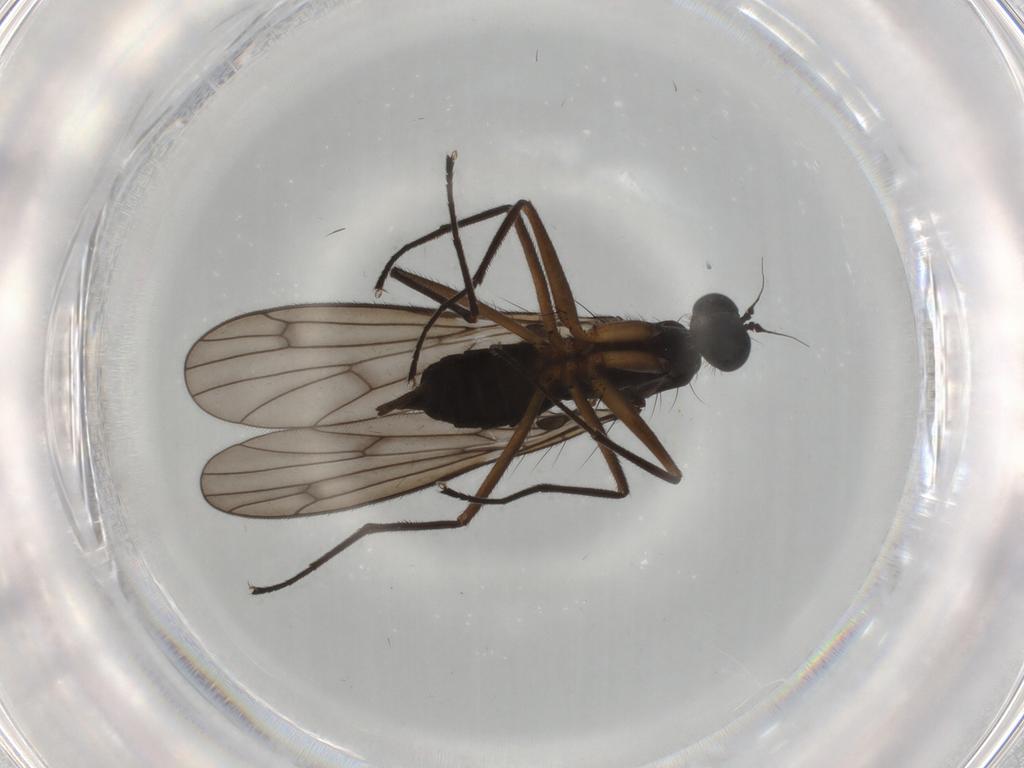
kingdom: Animalia
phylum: Arthropoda
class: Insecta
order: Diptera
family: Empididae
